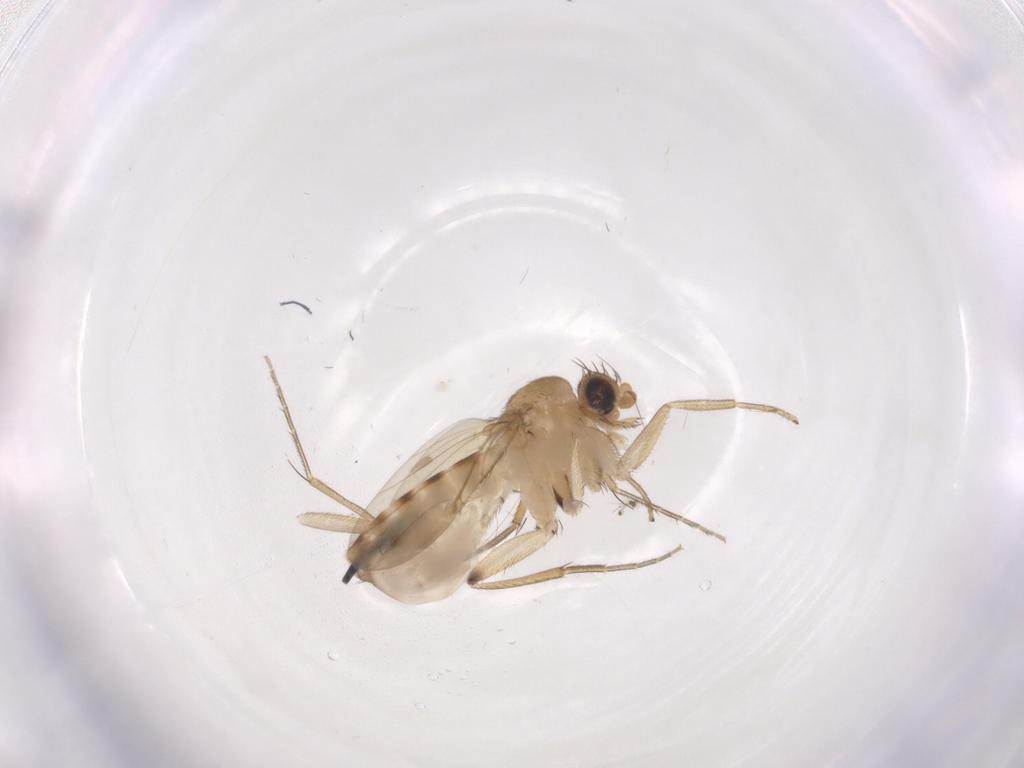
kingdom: Animalia
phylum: Arthropoda
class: Insecta
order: Diptera
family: Phoridae
